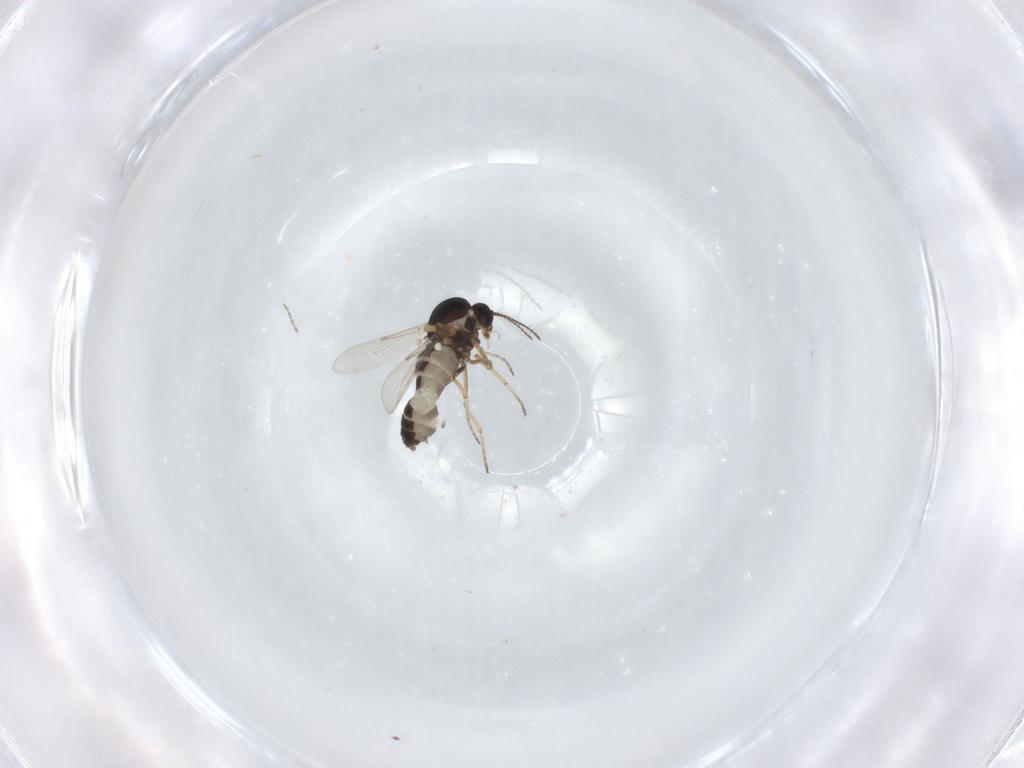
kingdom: Animalia
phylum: Arthropoda
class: Insecta
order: Diptera
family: Ceratopogonidae
